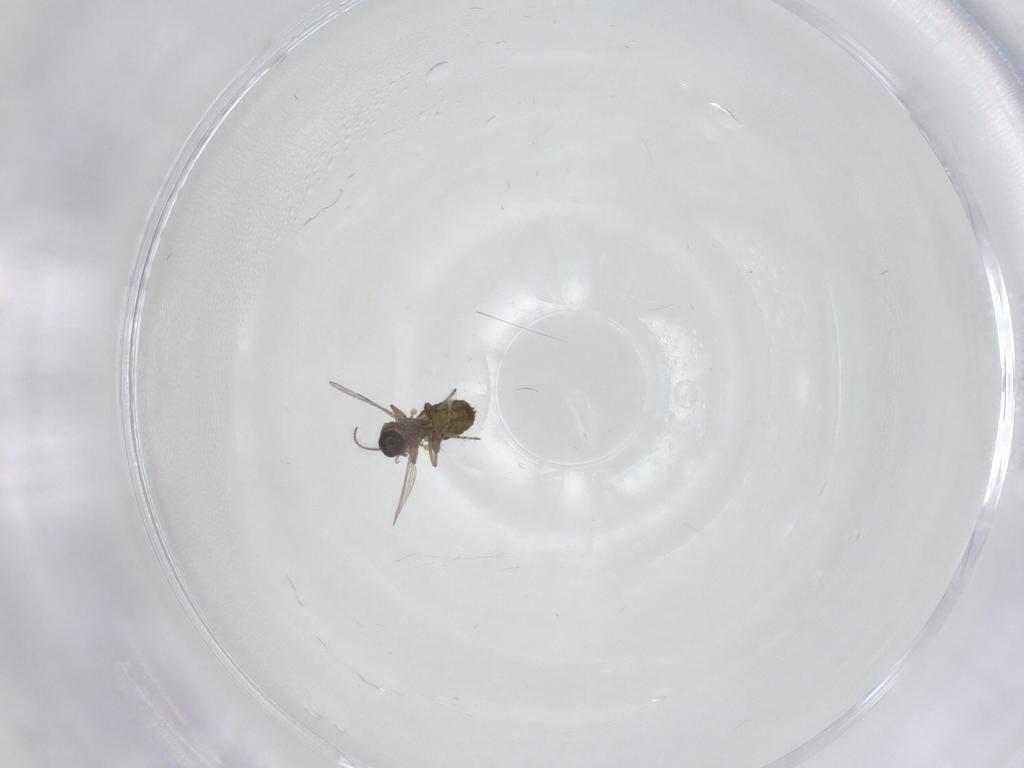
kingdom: Animalia
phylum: Arthropoda
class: Insecta
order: Diptera
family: Ceratopogonidae
